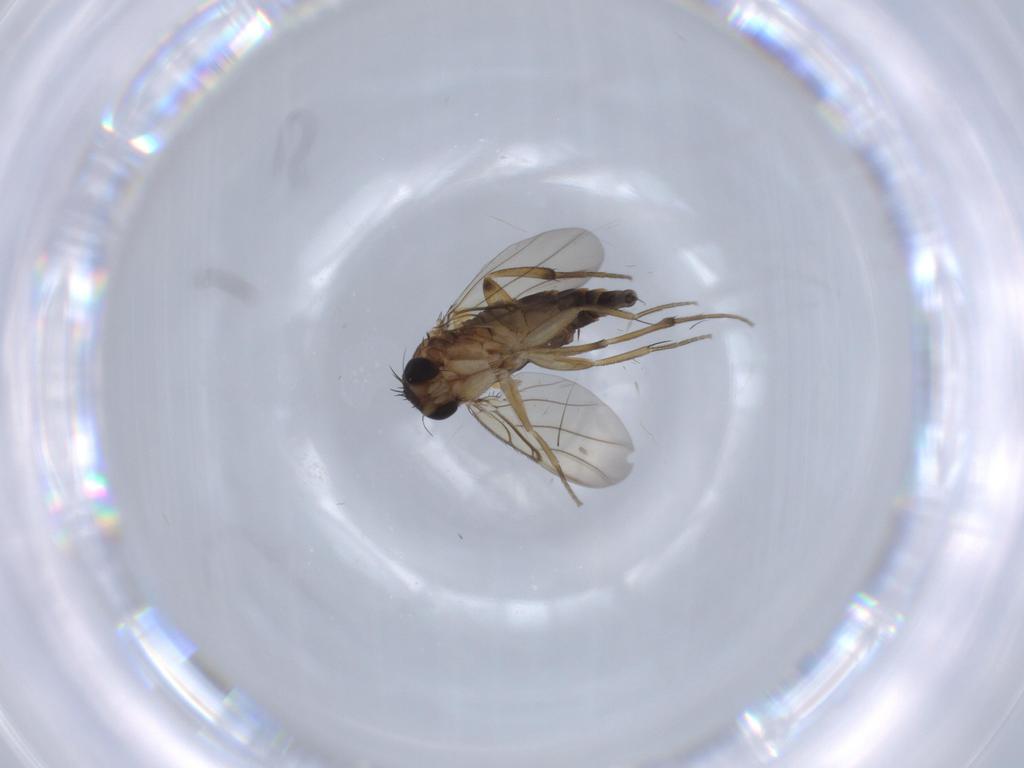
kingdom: Animalia
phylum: Arthropoda
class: Insecta
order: Diptera
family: Phoridae
